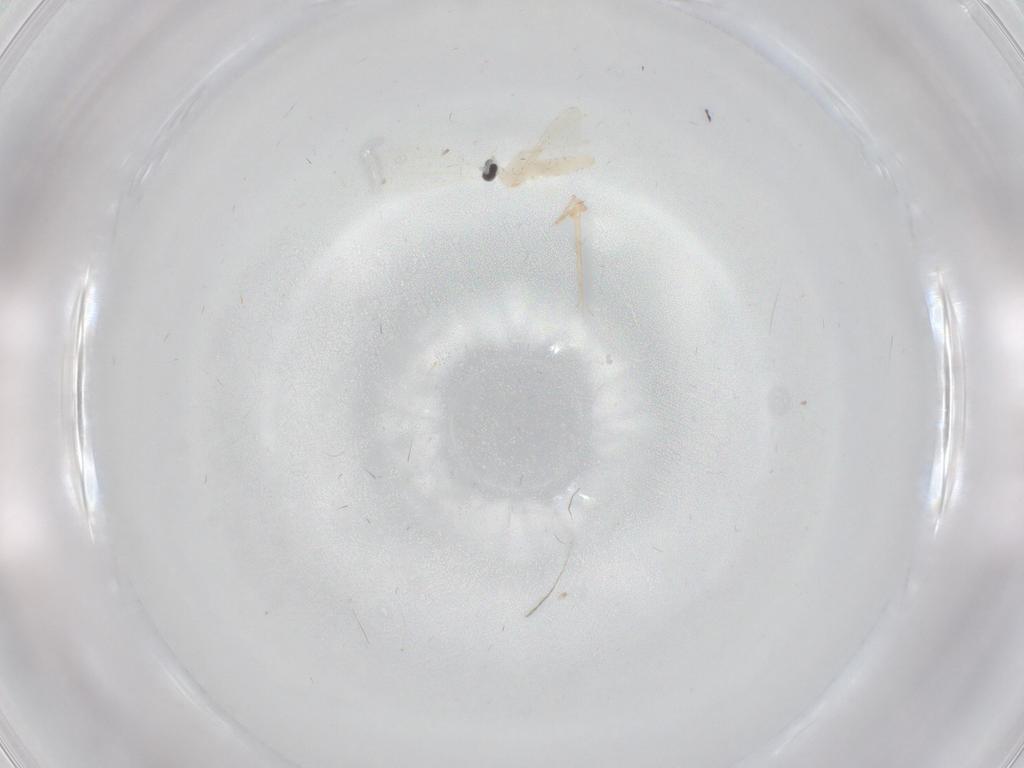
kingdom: Animalia
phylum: Arthropoda
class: Insecta
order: Diptera
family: Cecidomyiidae
